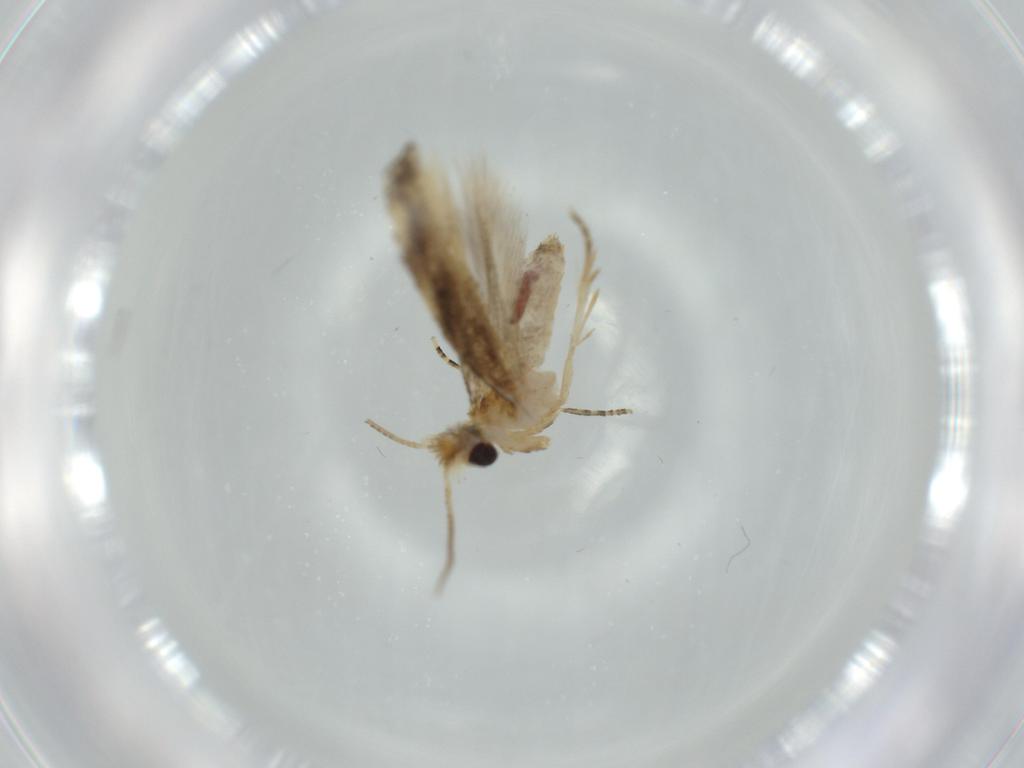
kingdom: Animalia
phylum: Arthropoda
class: Insecta
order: Lepidoptera
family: Bucculatricidae
